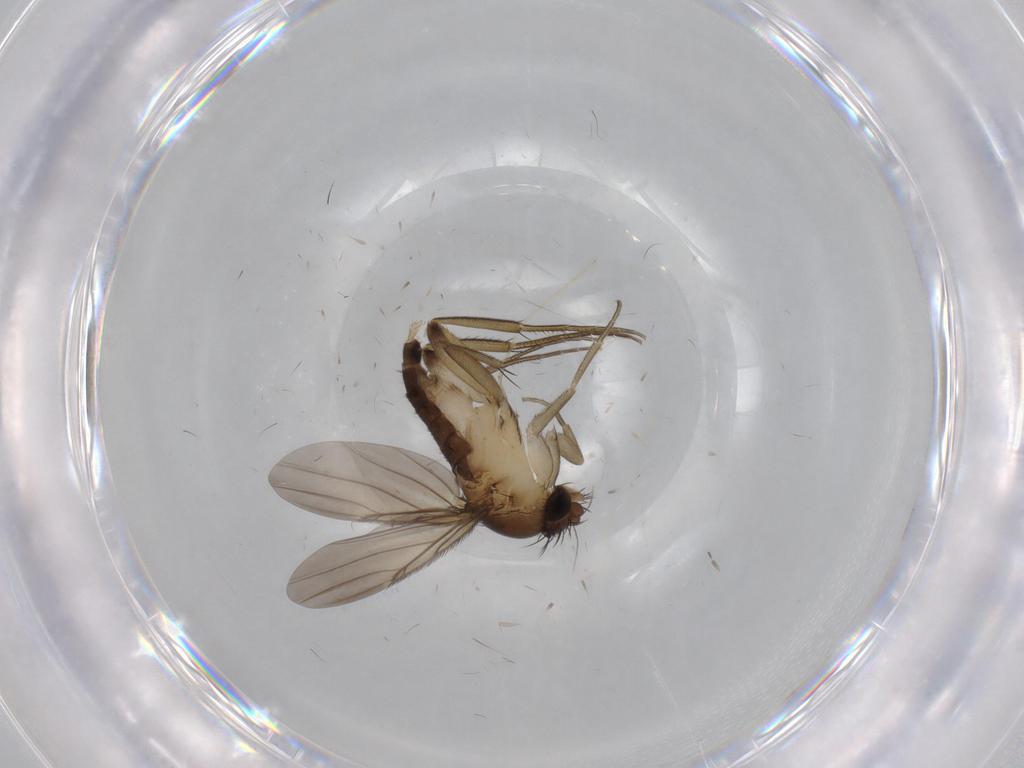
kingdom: Animalia
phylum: Arthropoda
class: Insecta
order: Diptera
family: Phoridae
